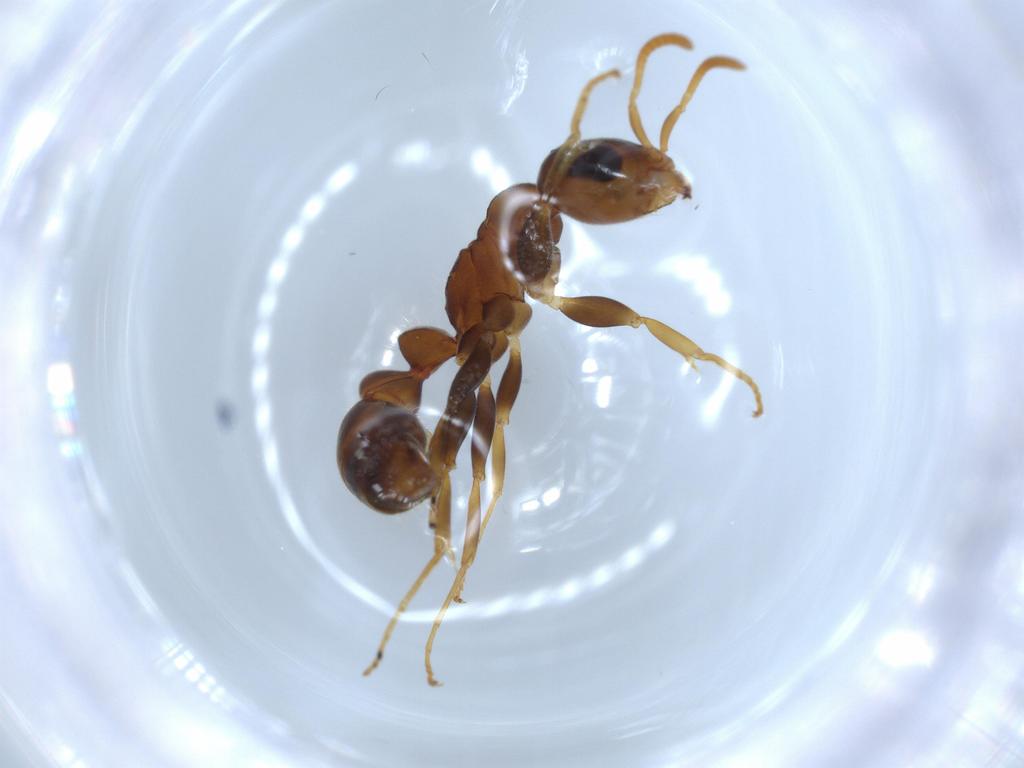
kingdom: Animalia
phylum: Arthropoda
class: Insecta
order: Hymenoptera
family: Formicidae
